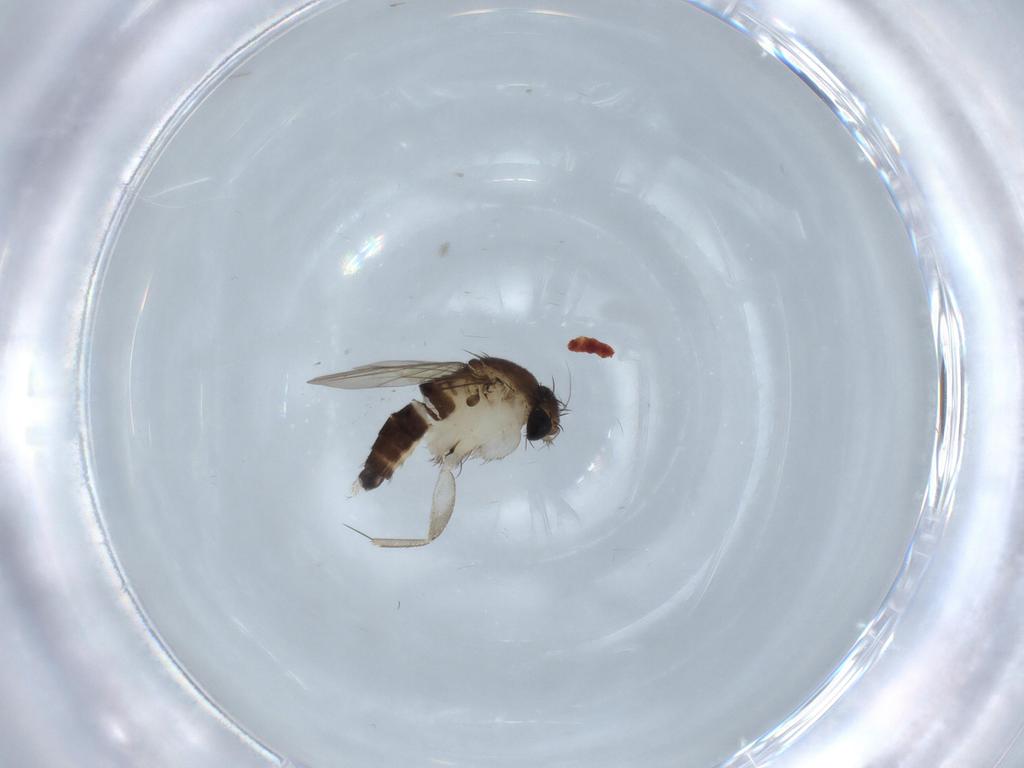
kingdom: Animalia
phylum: Arthropoda
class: Insecta
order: Diptera
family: Phoridae
